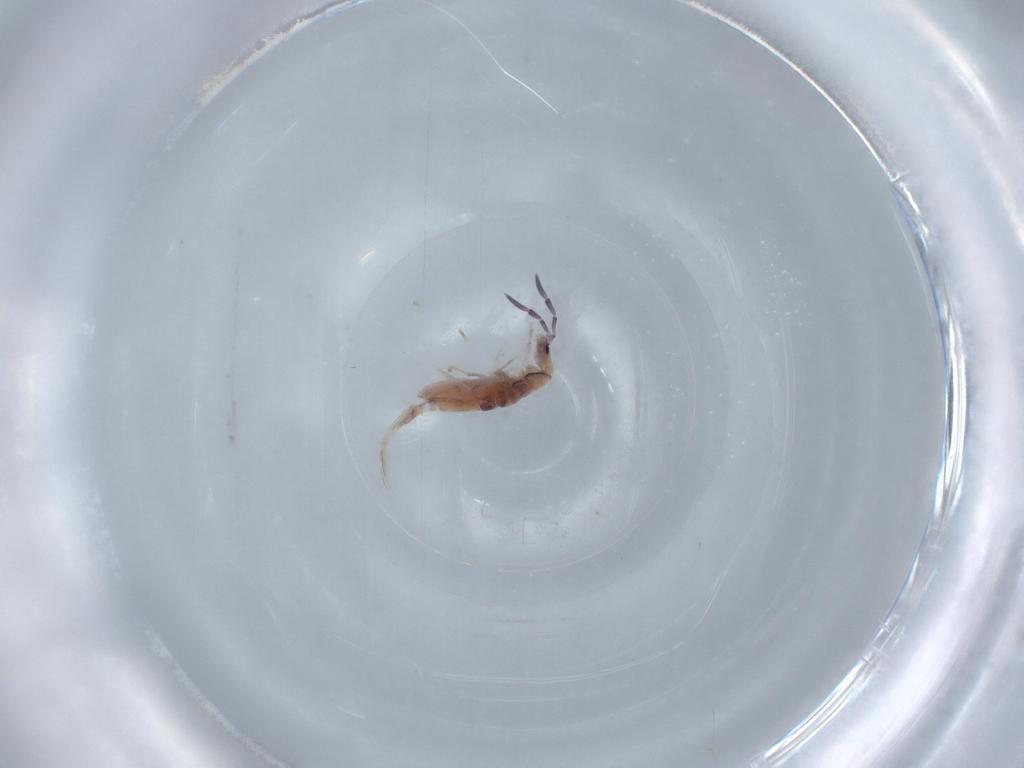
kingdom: Animalia
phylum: Arthropoda
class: Collembola
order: Poduromorpha
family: Hypogastruridae
